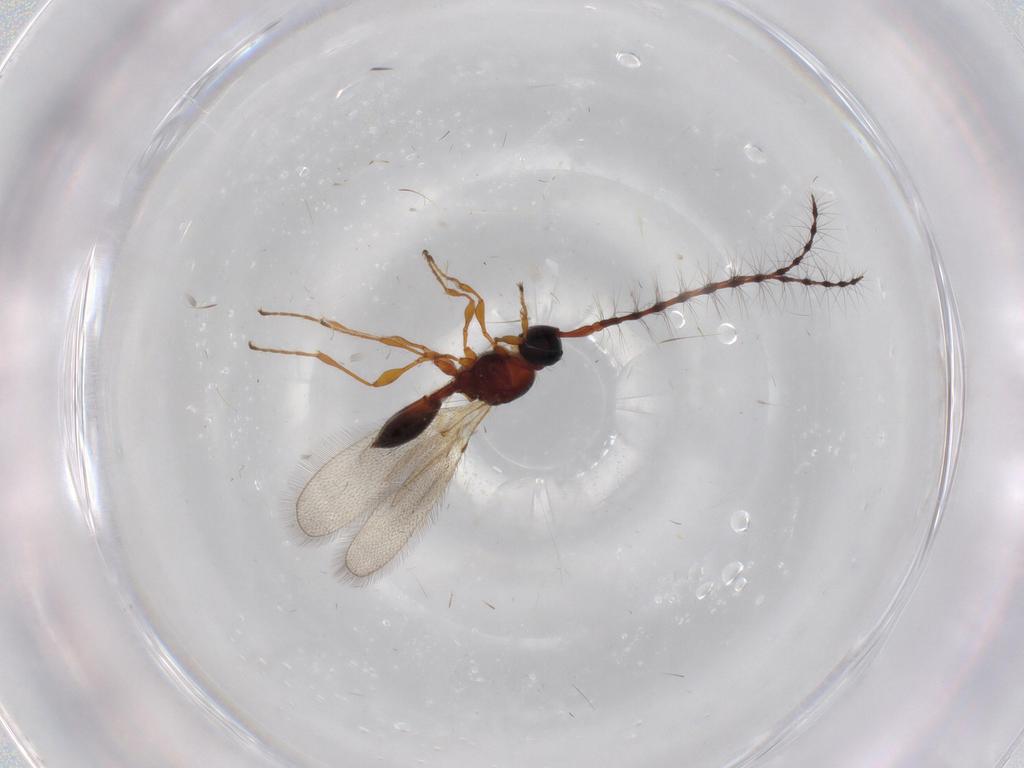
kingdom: Animalia
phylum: Arthropoda
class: Insecta
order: Hymenoptera
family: Diapriidae
